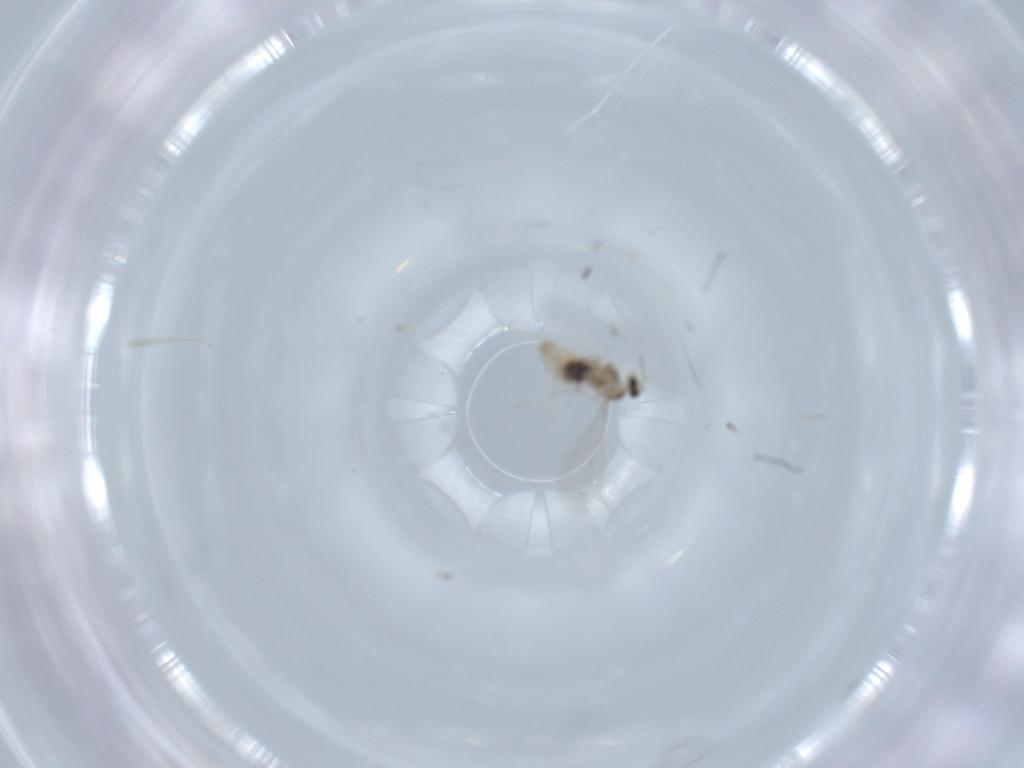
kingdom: Animalia
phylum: Arthropoda
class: Insecta
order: Diptera
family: Cecidomyiidae
